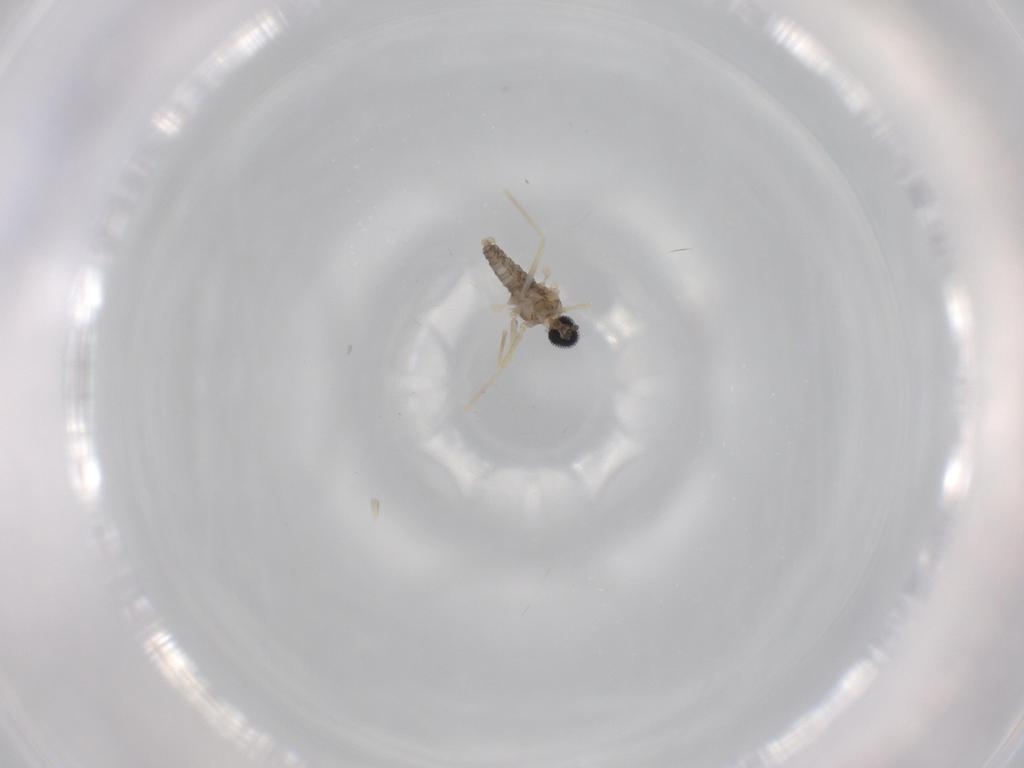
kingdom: Animalia
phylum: Arthropoda
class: Insecta
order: Diptera
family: Cecidomyiidae
